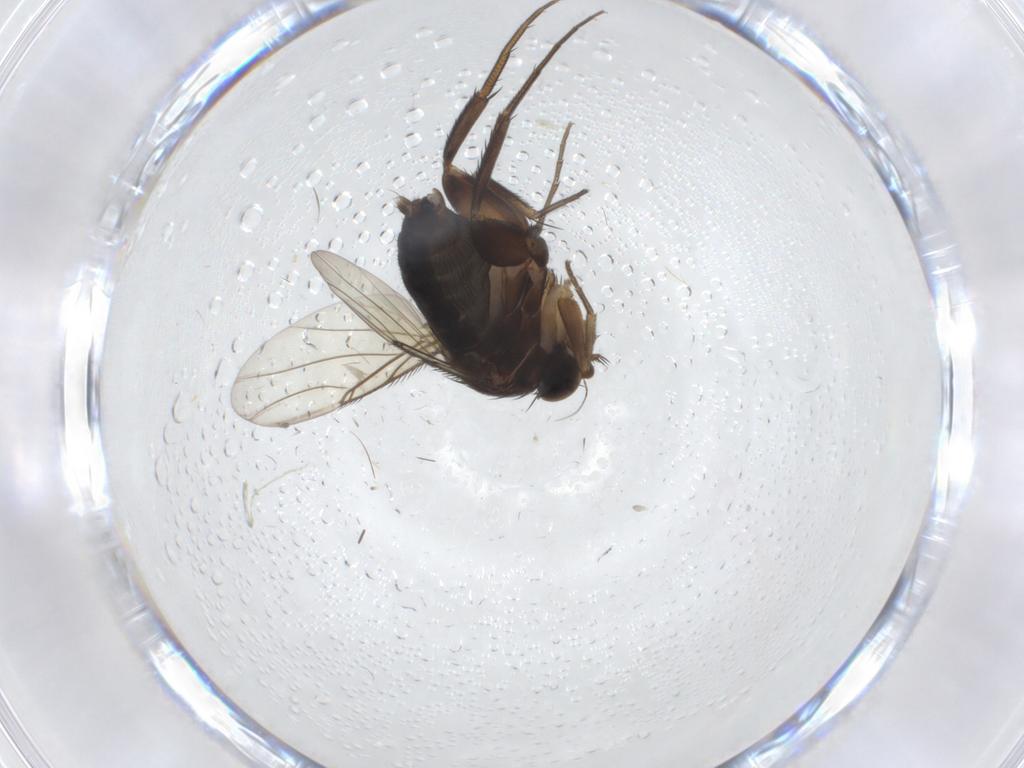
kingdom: Animalia
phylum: Arthropoda
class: Insecta
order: Diptera
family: Phoridae
